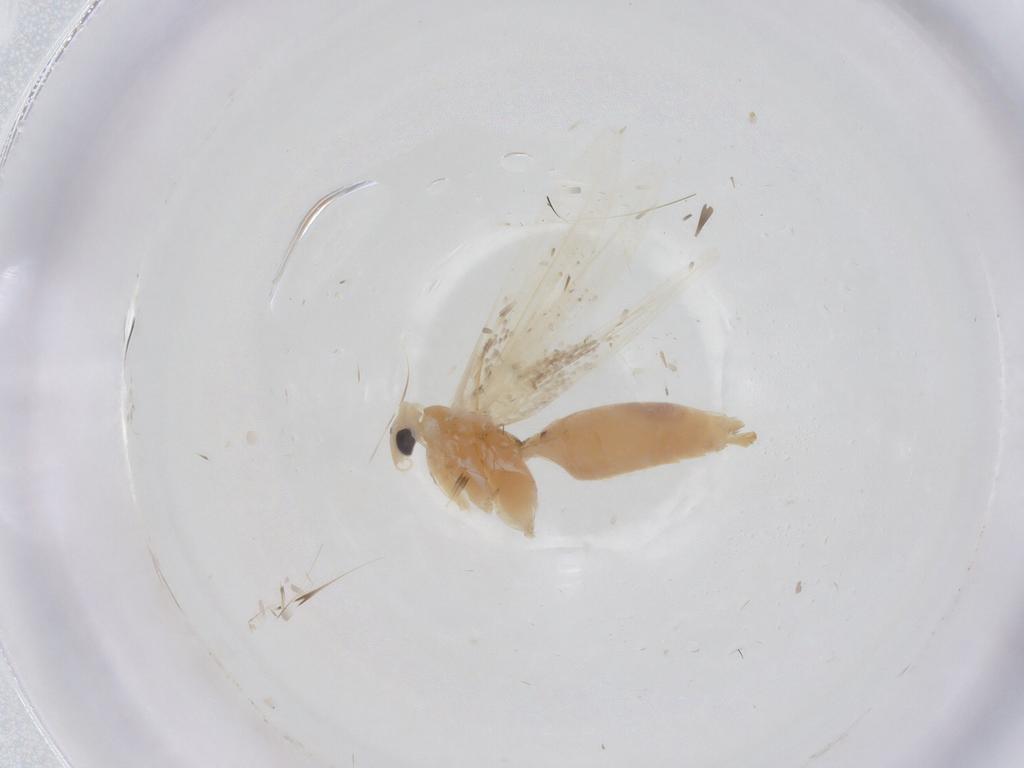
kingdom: Animalia
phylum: Arthropoda
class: Insecta
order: Lepidoptera
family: Bucculatricidae
